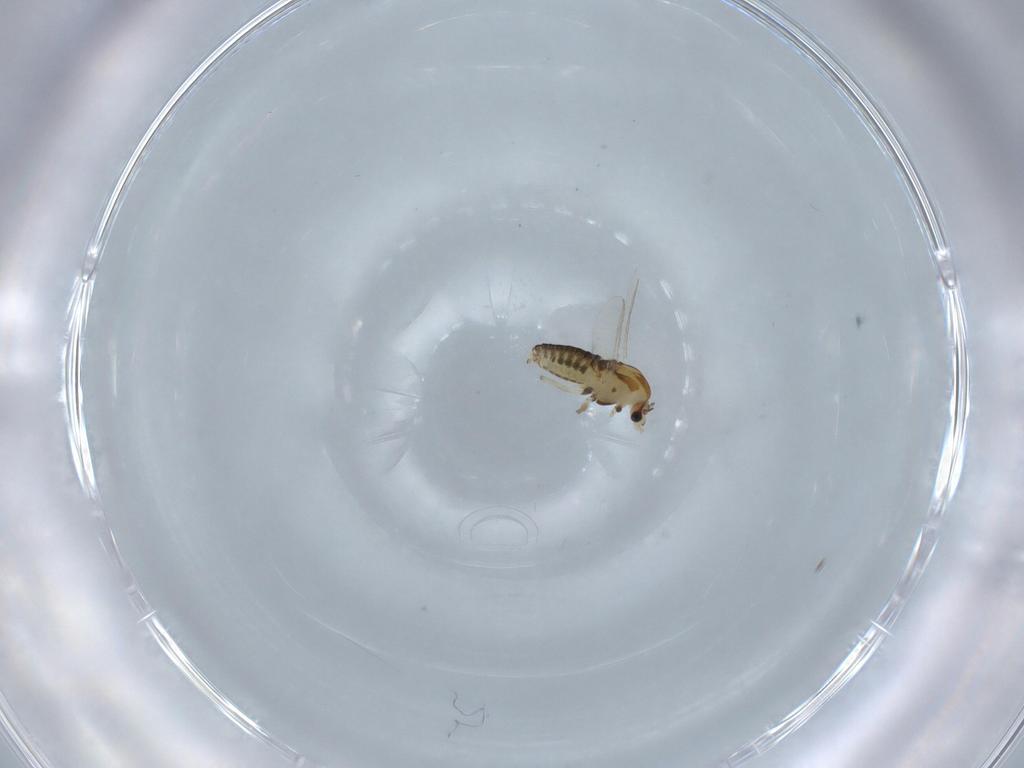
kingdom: Animalia
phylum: Arthropoda
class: Insecta
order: Diptera
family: Chironomidae
